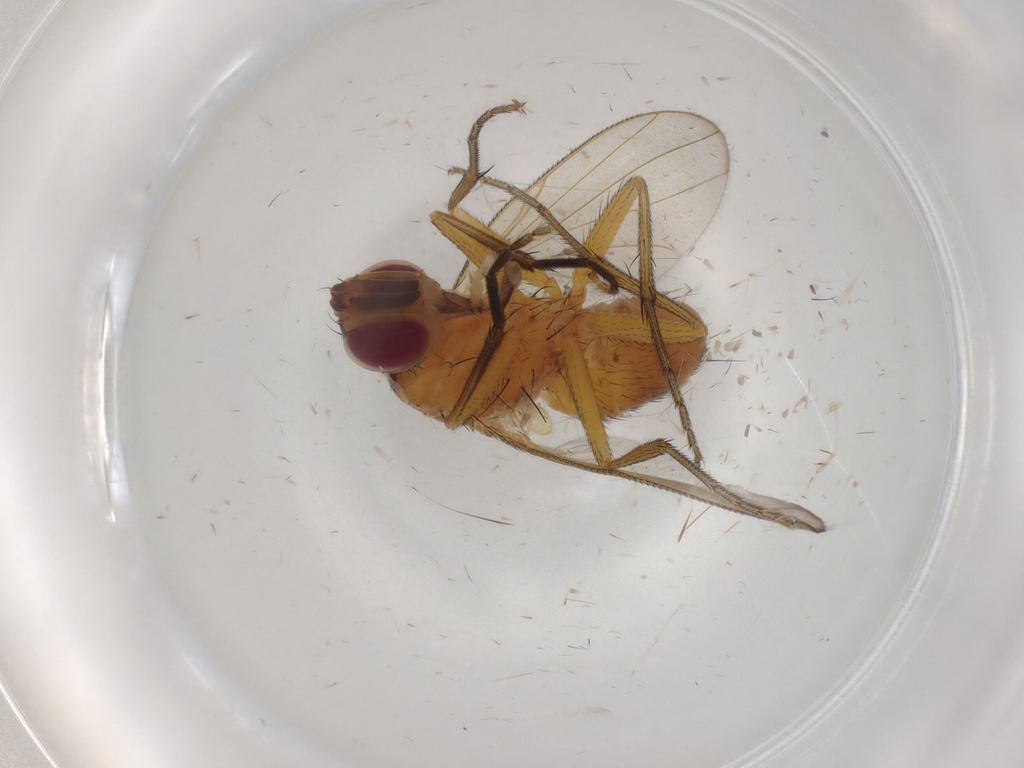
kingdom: Animalia
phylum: Arthropoda
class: Insecta
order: Diptera
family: Muscidae
